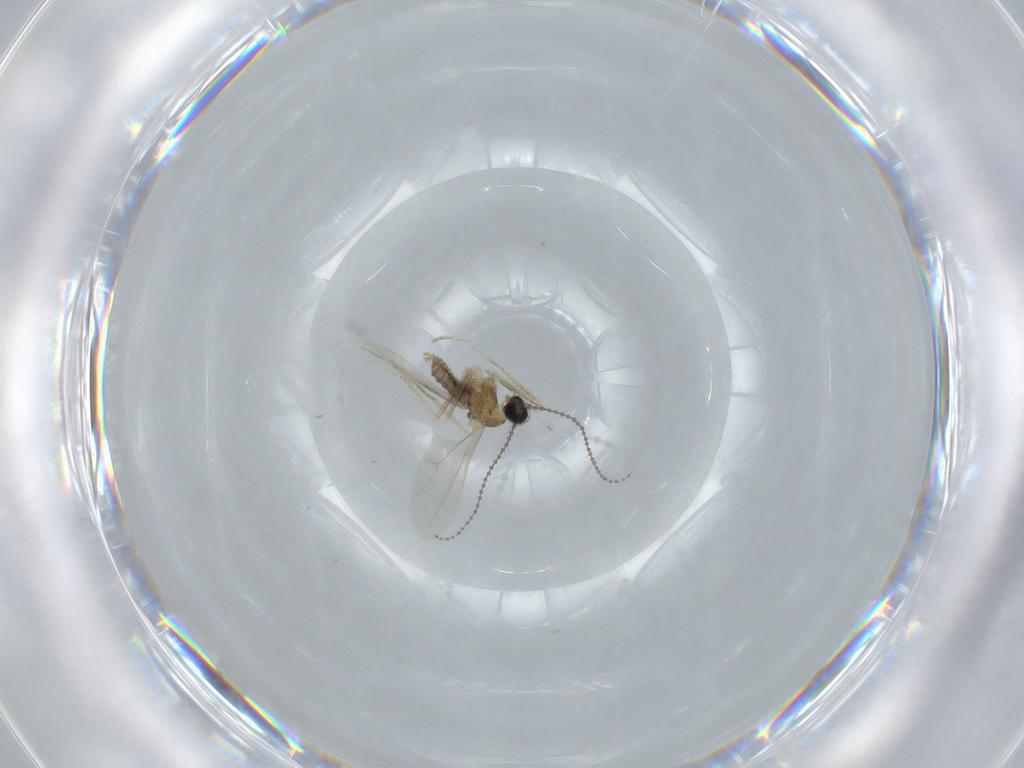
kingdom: Animalia
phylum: Arthropoda
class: Insecta
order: Diptera
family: Cecidomyiidae
